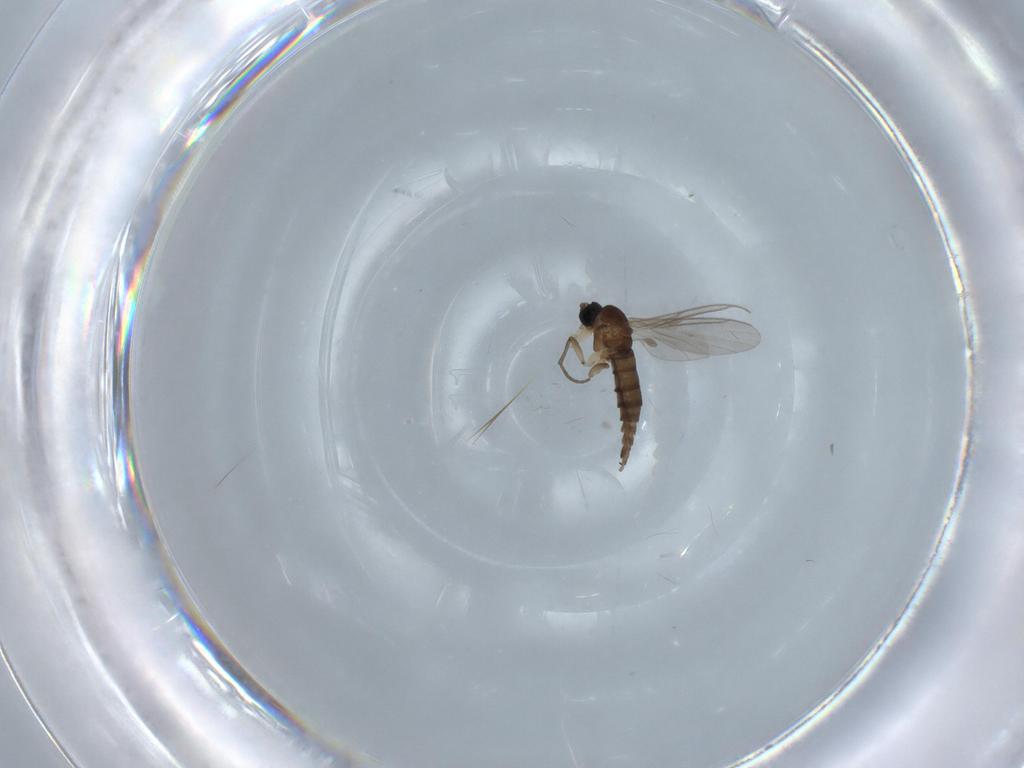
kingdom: Animalia
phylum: Arthropoda
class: Insecta
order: Diptera
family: Sciaridae
